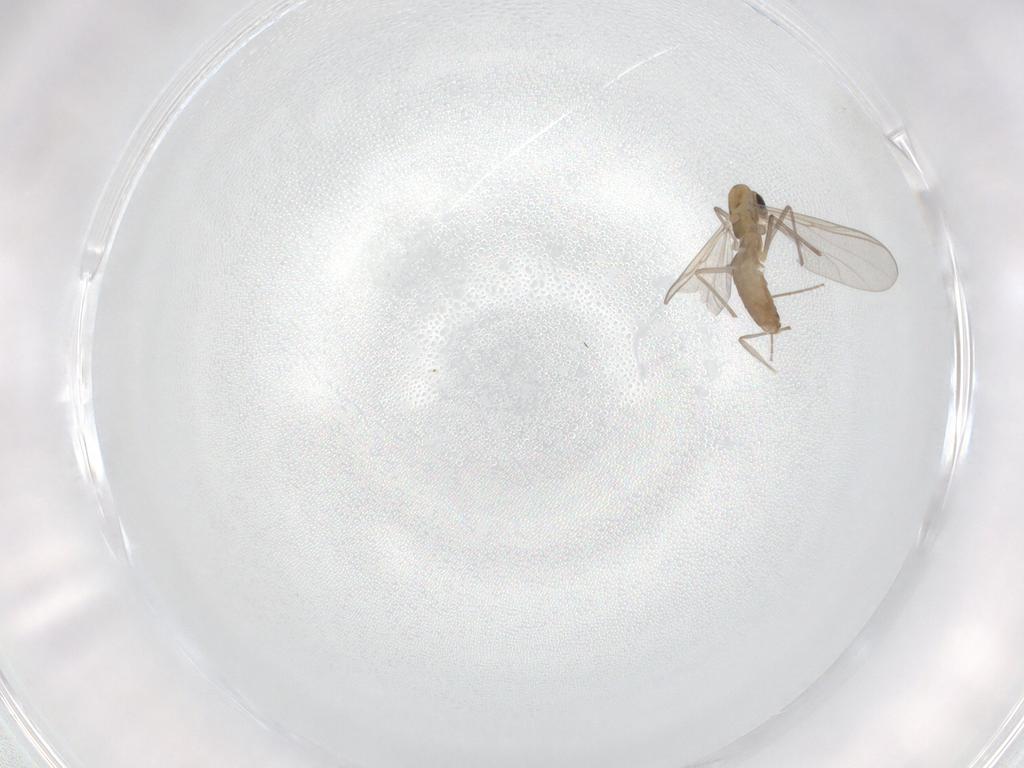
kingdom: Animalia
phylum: Arthropoda
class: Insecta
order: Diptera
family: Chironomidae
